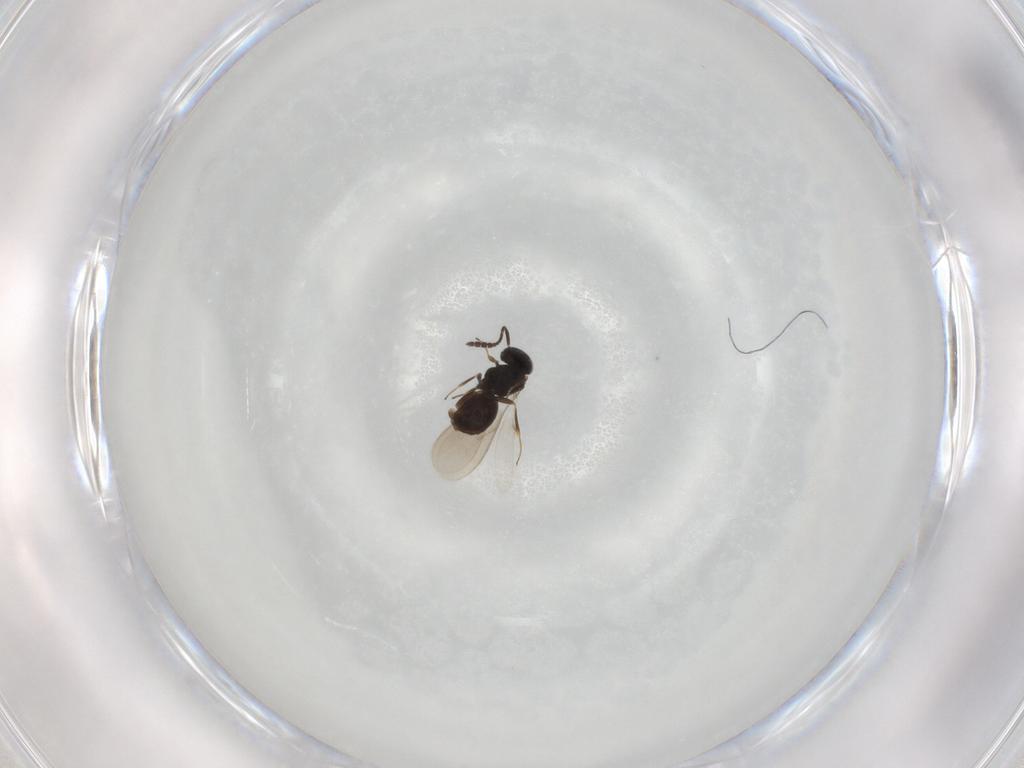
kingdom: Animalia
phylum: Arthropoda
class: Insecta
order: Hymenoptera
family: Scelionidae
